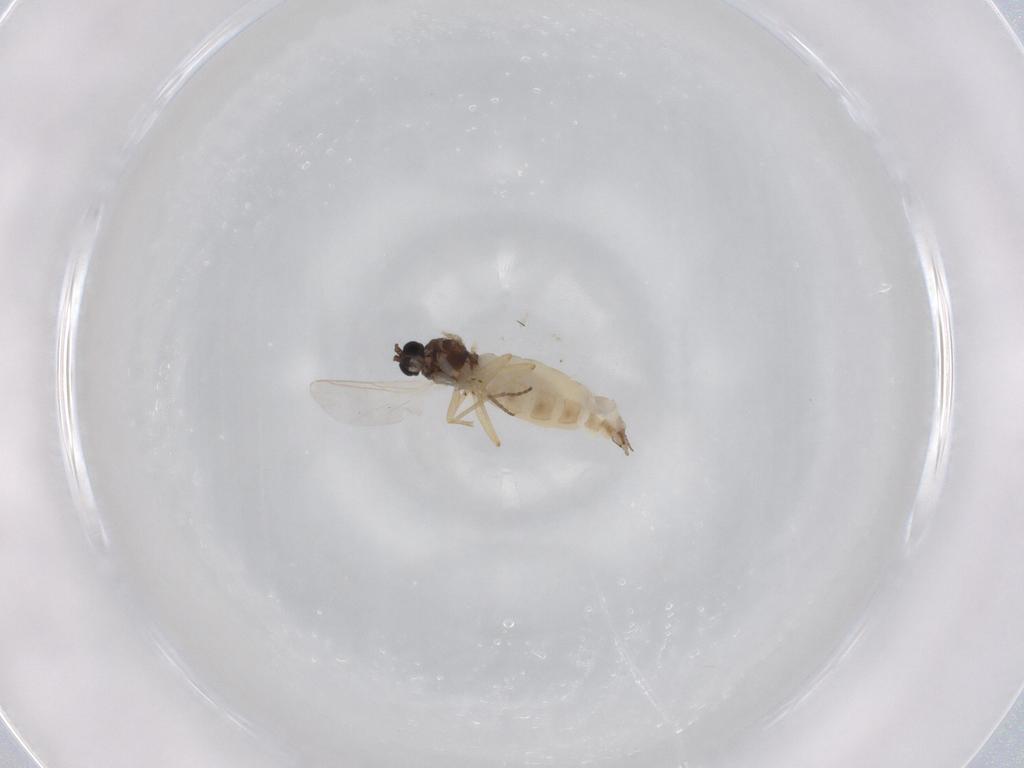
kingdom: Animalia
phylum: Arthropoda
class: Insecta
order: Diptera
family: Sciaridae
